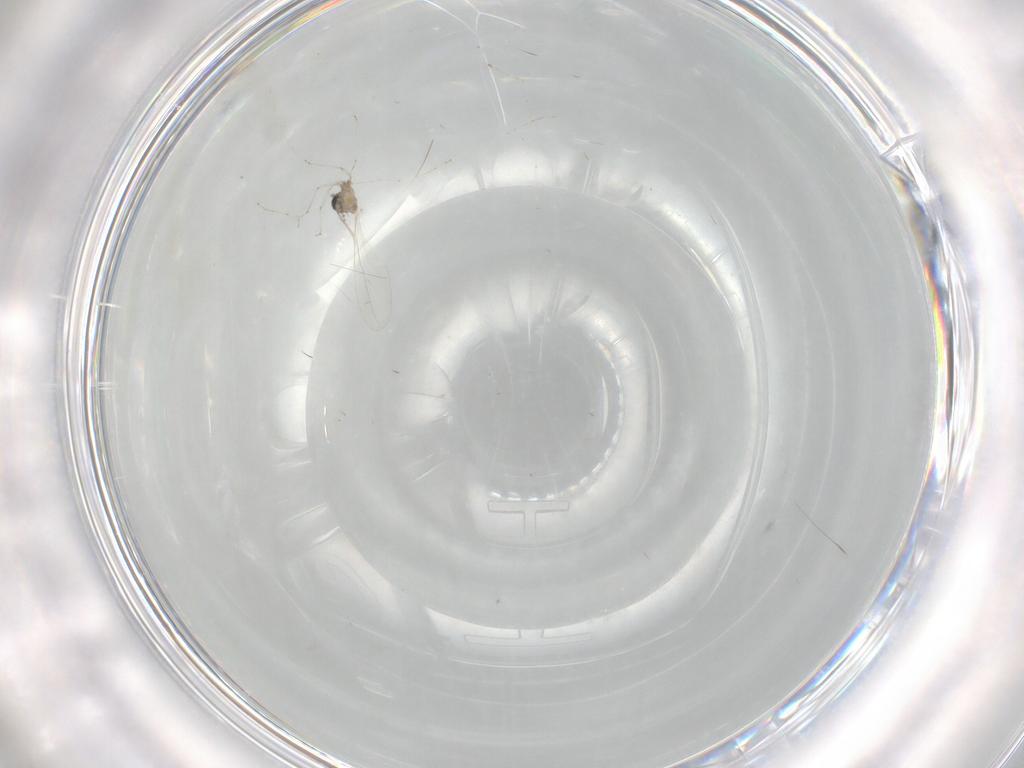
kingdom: Animalia
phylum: Arthropoda
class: Insecta
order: Diptera
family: Cecidomyiidae
